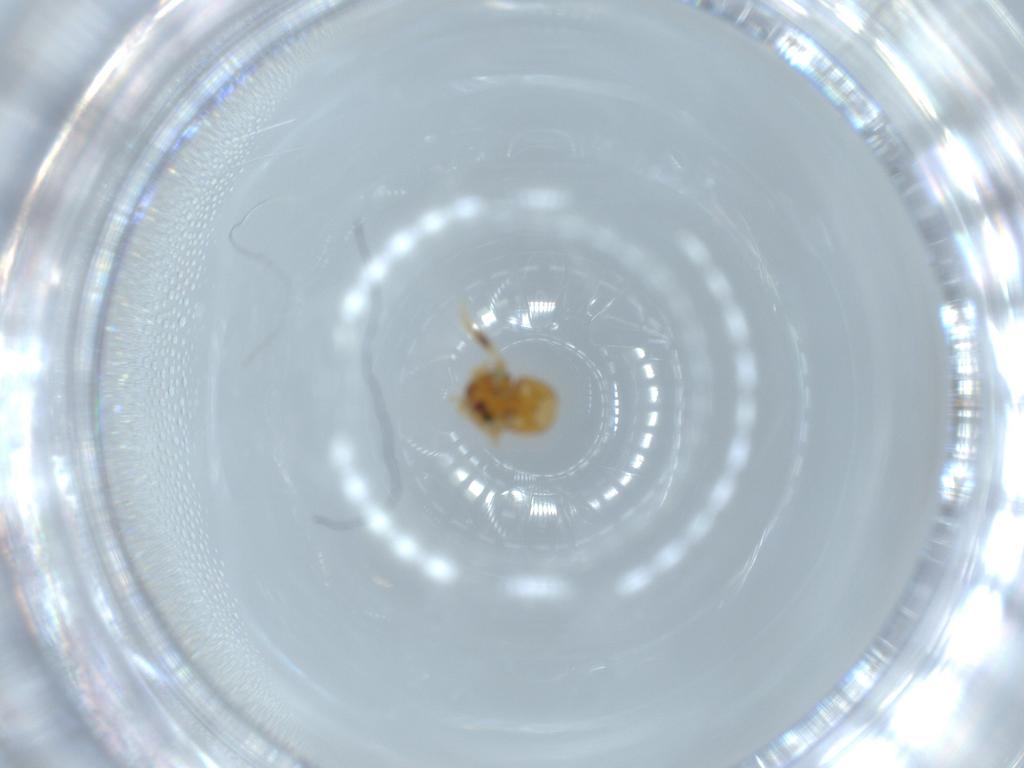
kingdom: Animalia
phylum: Arthropoda
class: Insecta
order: Coleoptera
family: Staphylinidae
